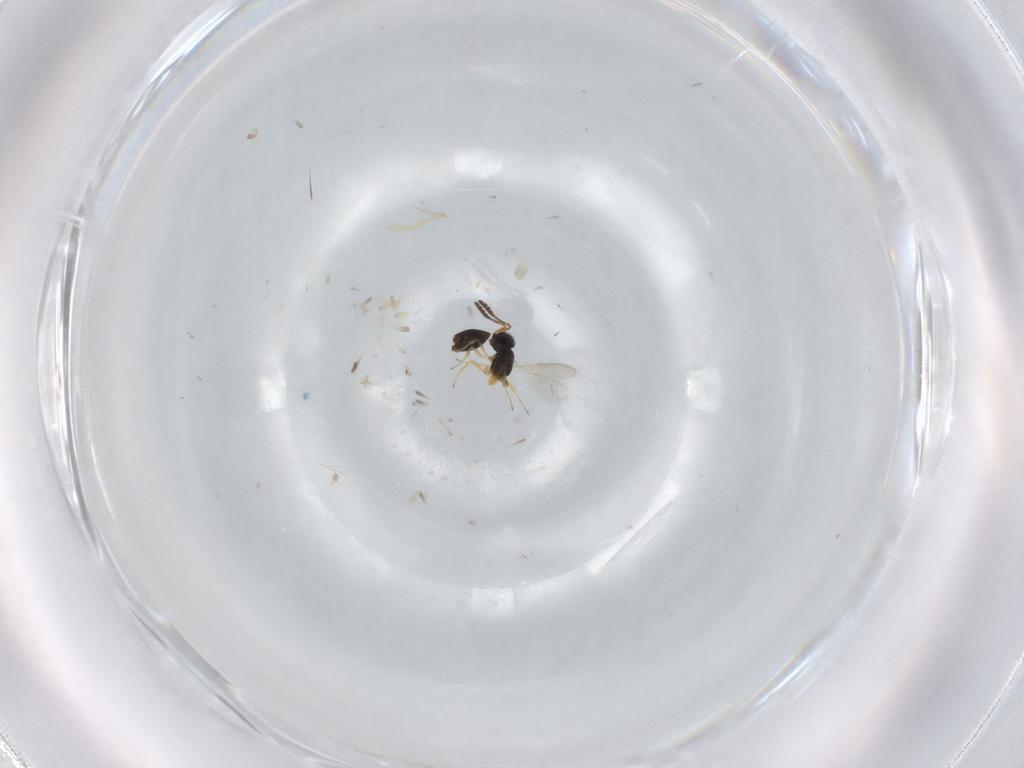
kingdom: Animalia
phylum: Arthropoda
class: Insecta
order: Hymenoptera
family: Scelionidae
